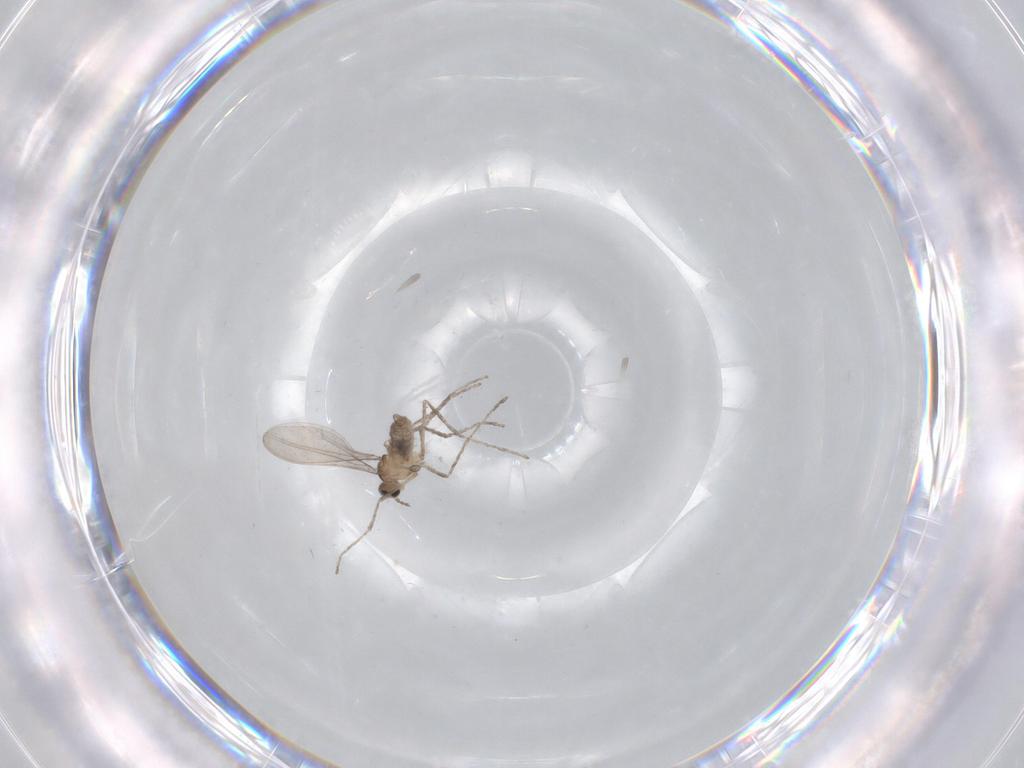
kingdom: Animalia
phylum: Arthropoda
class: Insecta
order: Diptera
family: Cecidomyiidae
